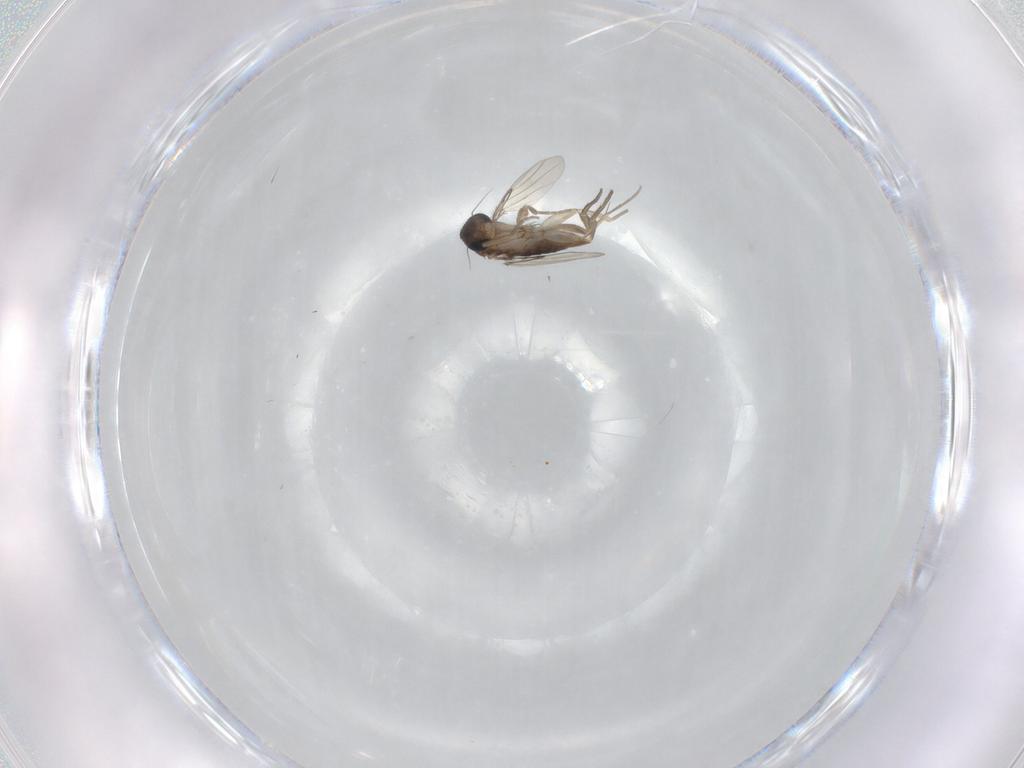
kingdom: Animalia
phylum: Arthropoda
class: Insecta
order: Diptera
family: Phoridae
